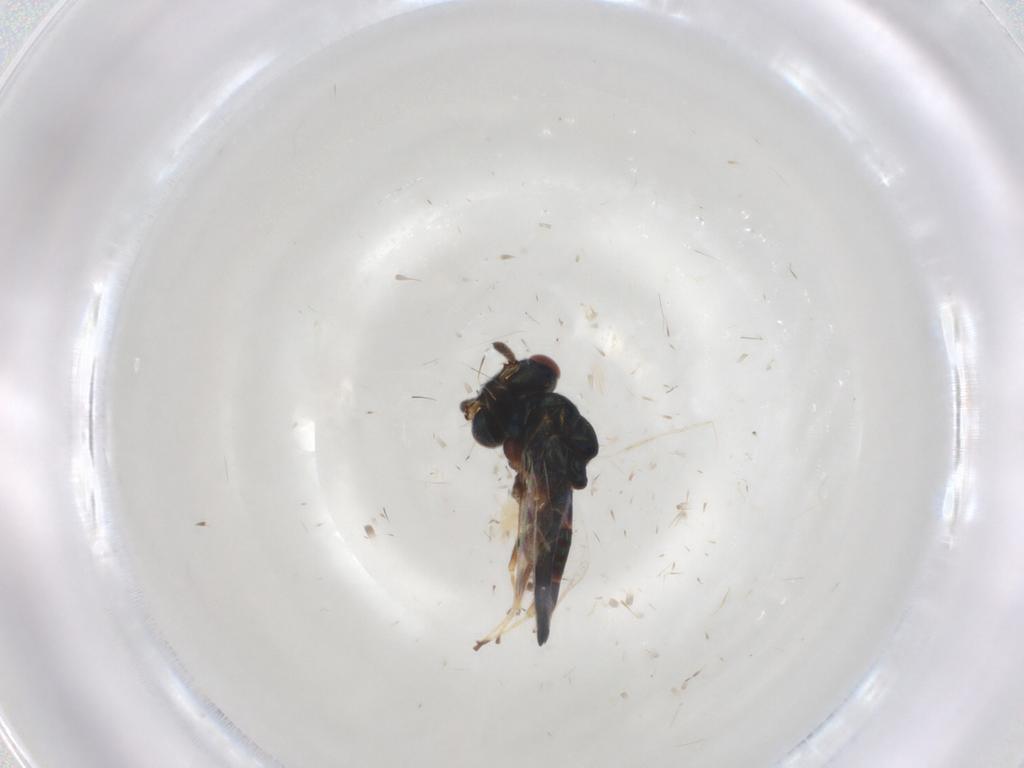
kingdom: Animalia
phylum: Arthropoda
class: Insecta
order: Hymenoptera
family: Pteromalidae
